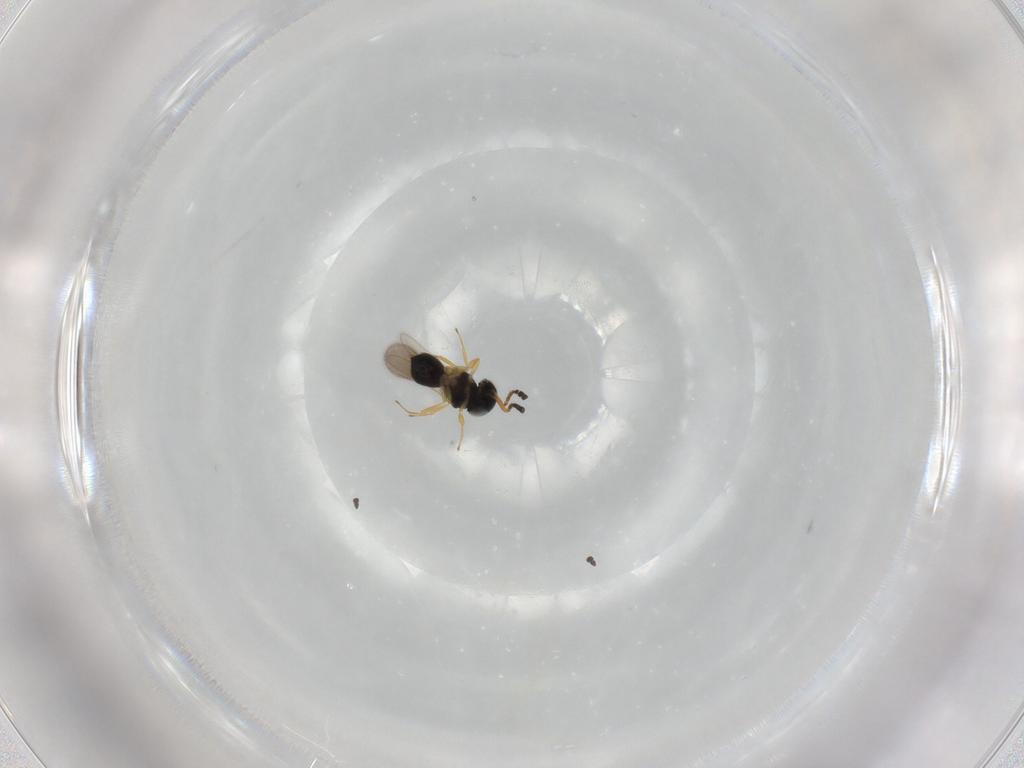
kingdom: Animalia
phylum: Arthropoda
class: Insecta
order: Hymenoptera
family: Scelionidae
